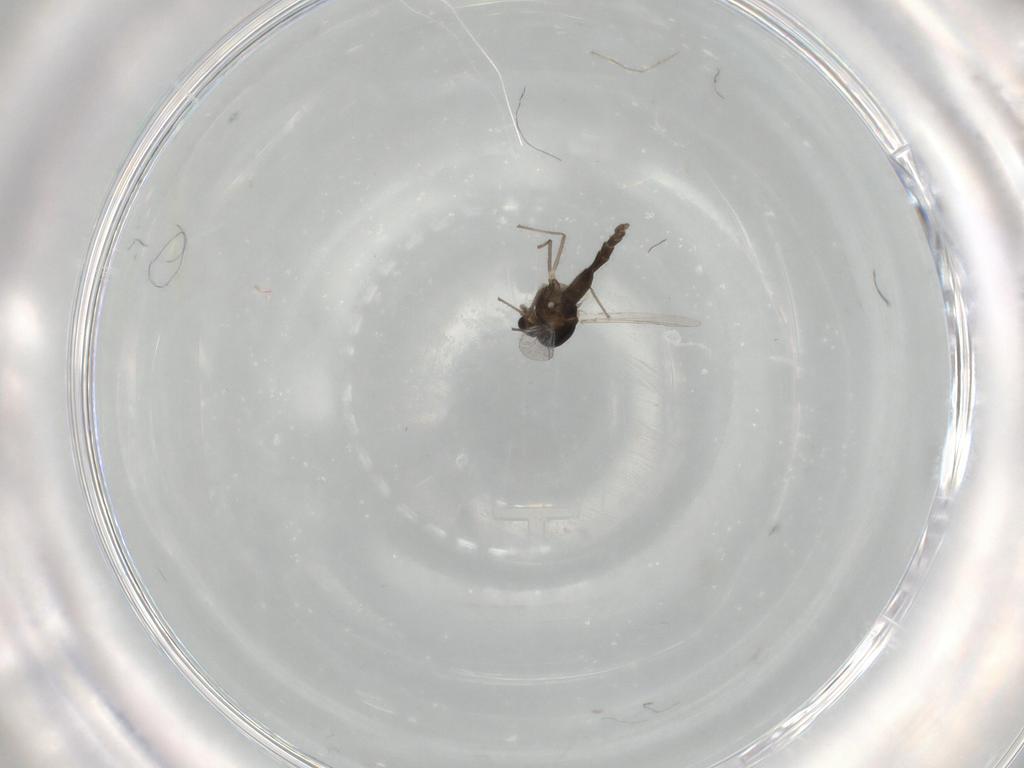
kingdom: Animalia
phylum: Arthropoda
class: Insecta
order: Diptera
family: Chironomidae
